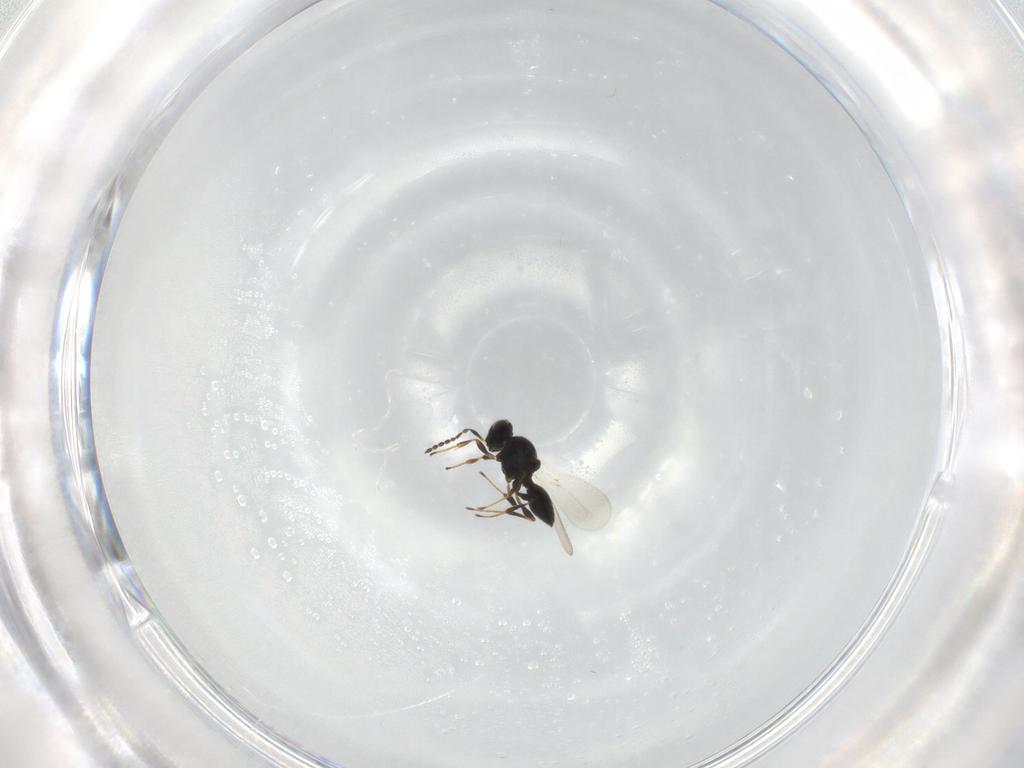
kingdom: Animalia
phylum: Arthropoda
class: Insecta
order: Hymenoptera
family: Platygastridae
